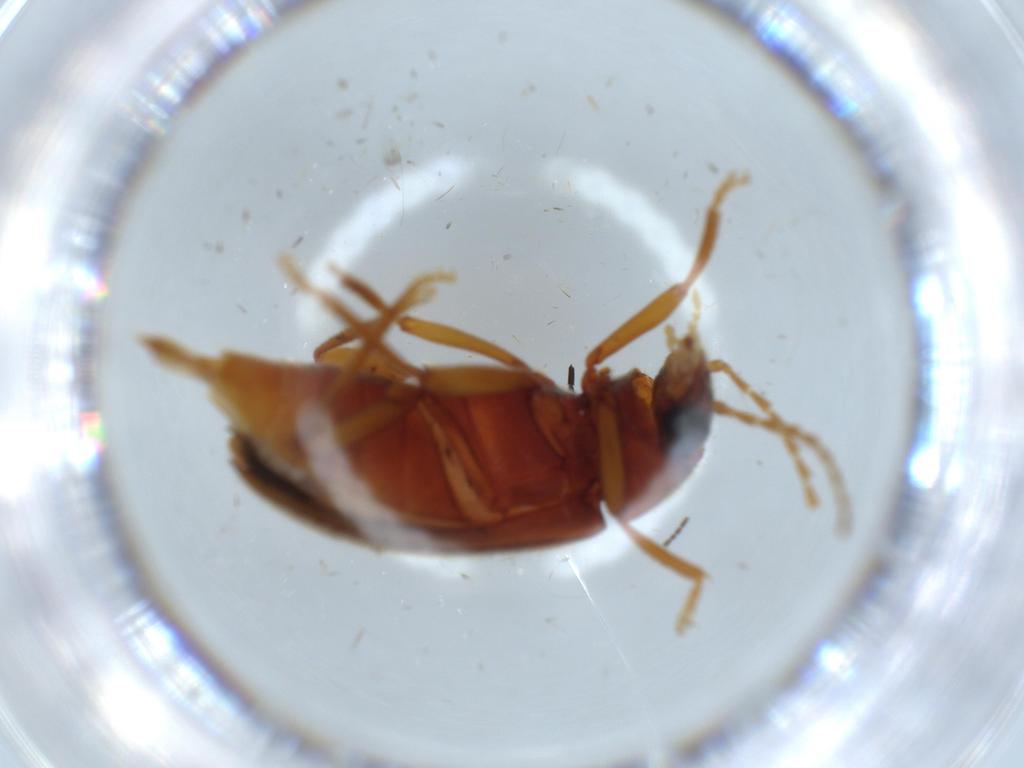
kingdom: Animalia
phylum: Arthropoda
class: Insecta
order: Coleoptera
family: Ptilodactylidae
